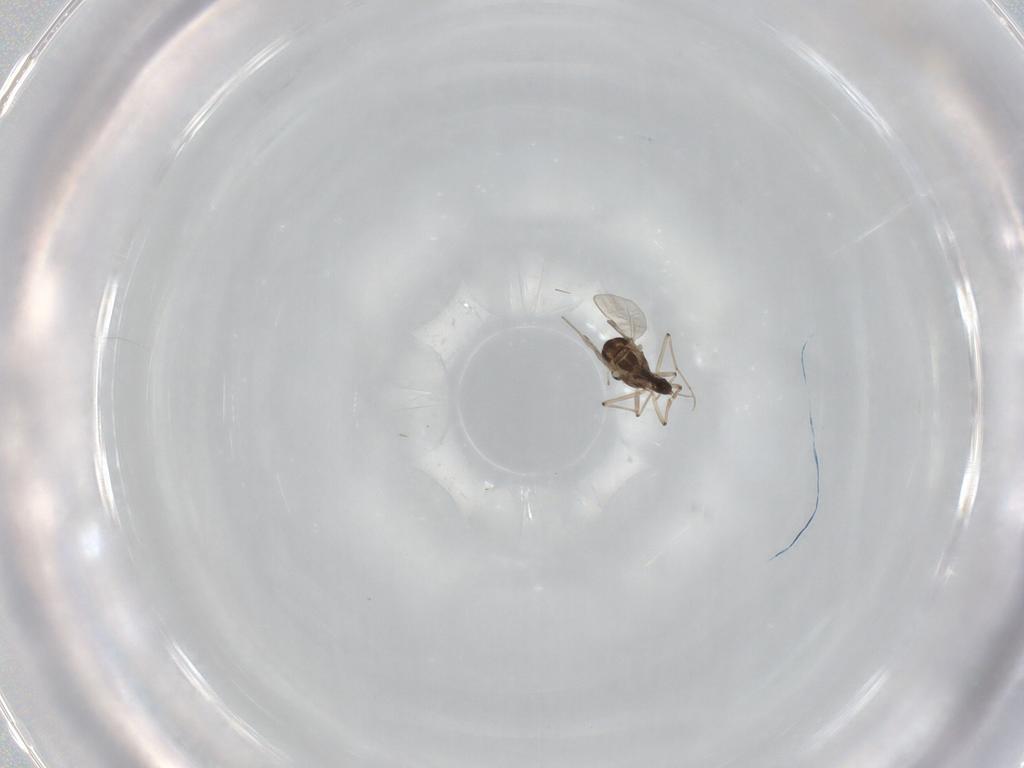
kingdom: Animalia
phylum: Arthropoda
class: Insecta
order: Diptera
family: Chironomidae
